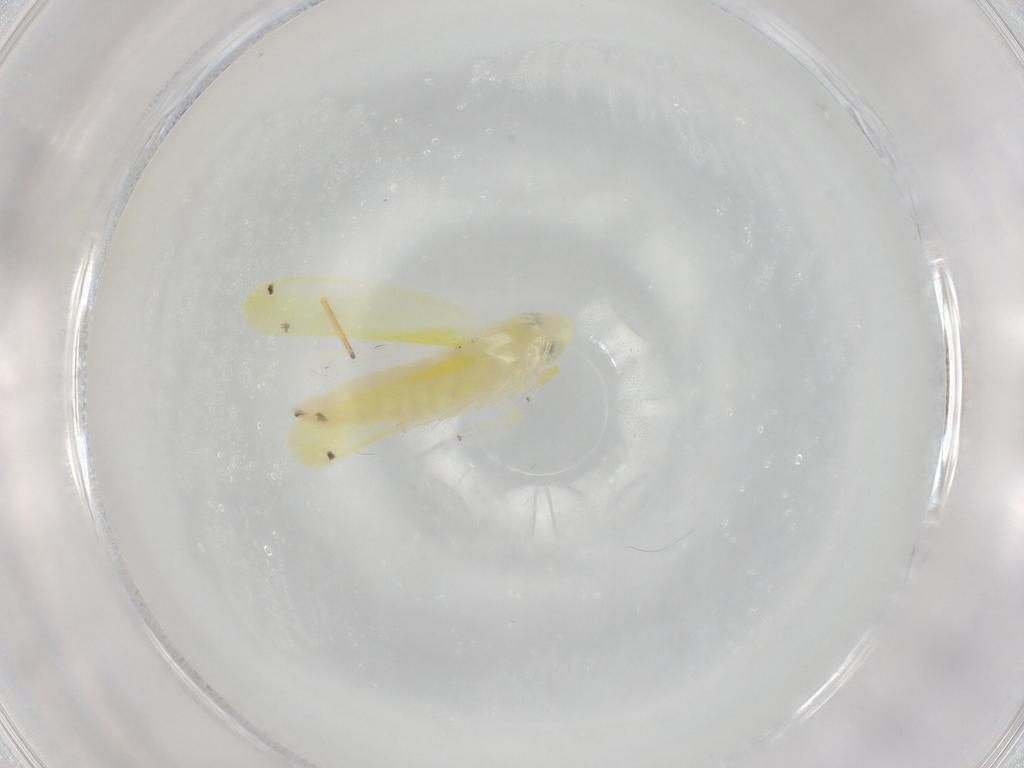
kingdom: Animalia
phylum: Arthropoda
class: Insecta
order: Hemiptera
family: Cicadellidae
